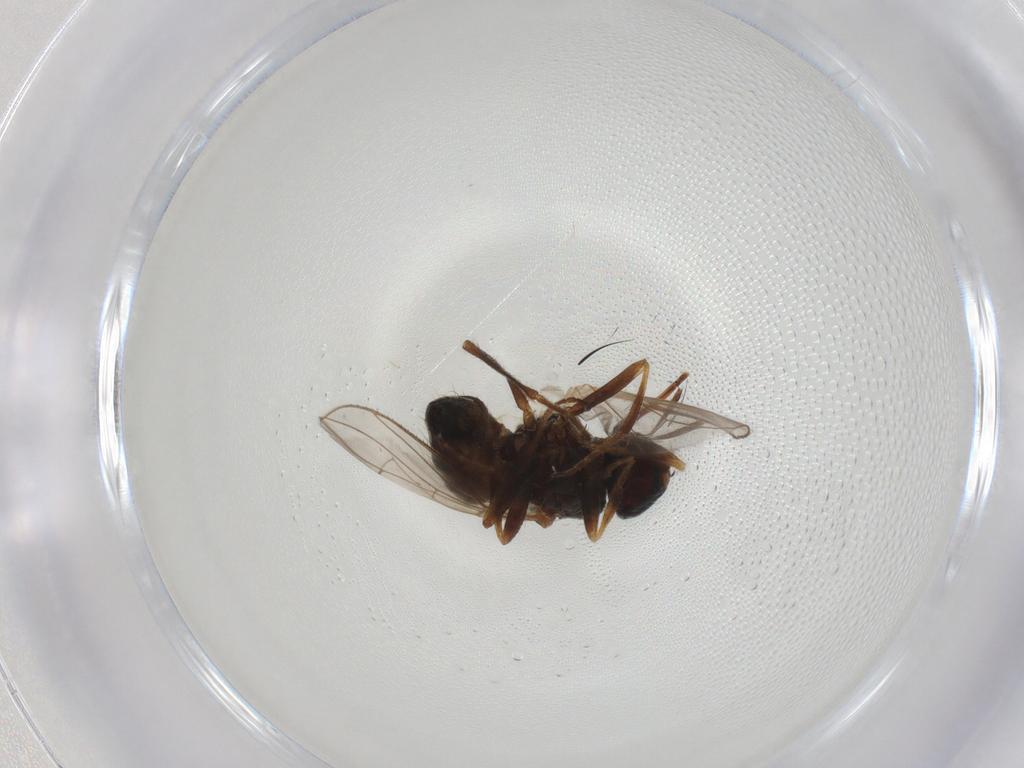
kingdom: Animalia
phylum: Arthropoda
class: Insecta
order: Diptera
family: Muscidae
